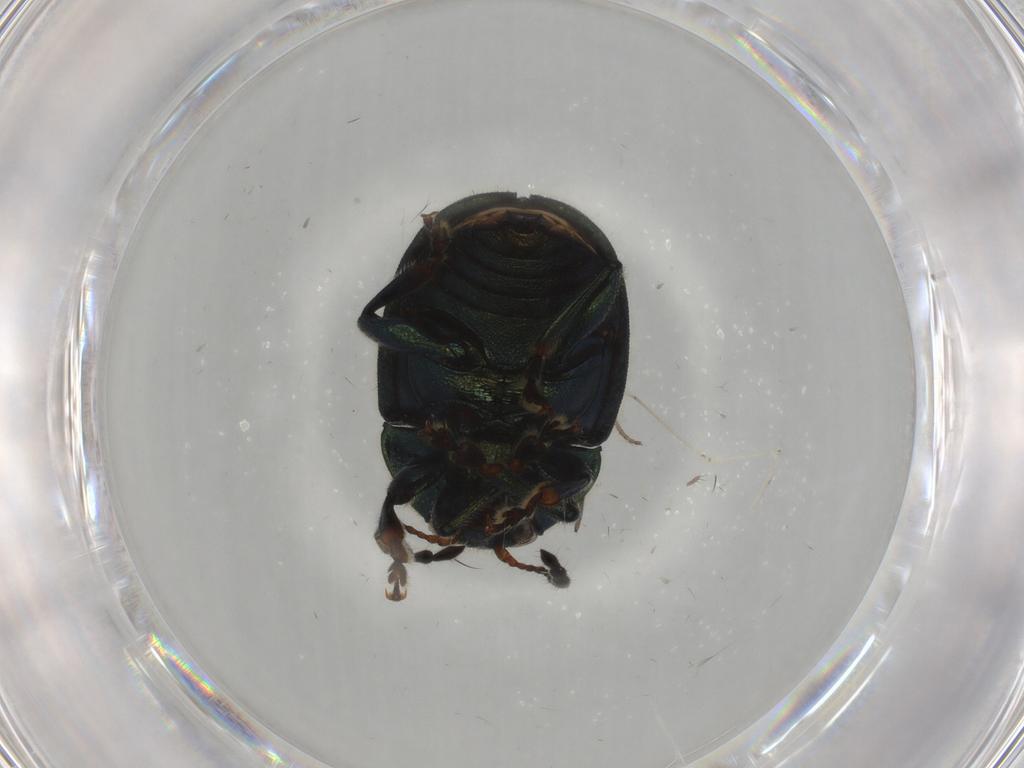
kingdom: Animalia
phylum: Arthropoda
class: Insecta
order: Coleoptera
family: Chrysomelidae
